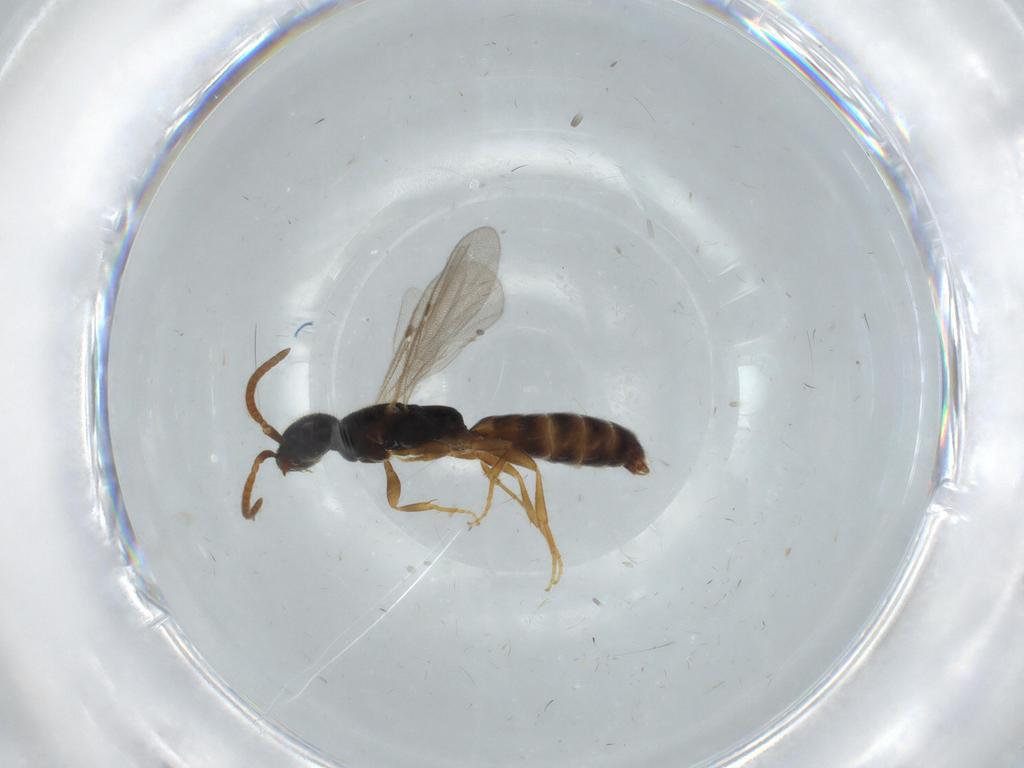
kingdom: Animalia
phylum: Arthropoda
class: Insecta
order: Hymenoptera
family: Bethylidae
